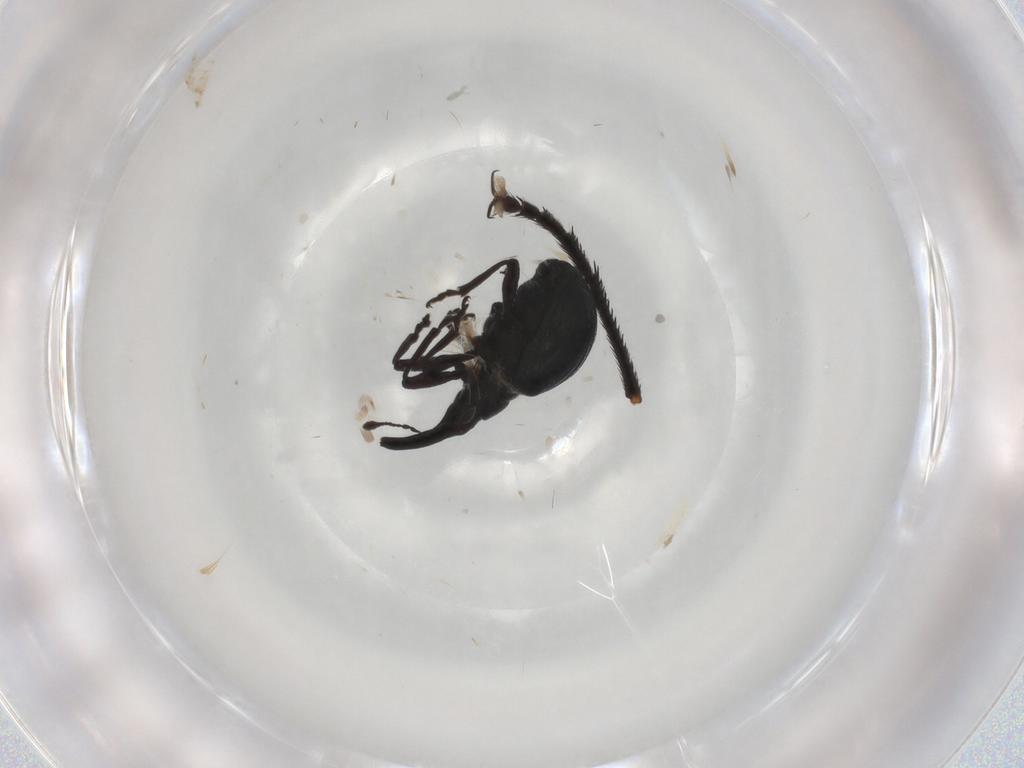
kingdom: Animalia
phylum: Arthropoda
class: Insecta
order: Coleoptera
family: Brentidae
